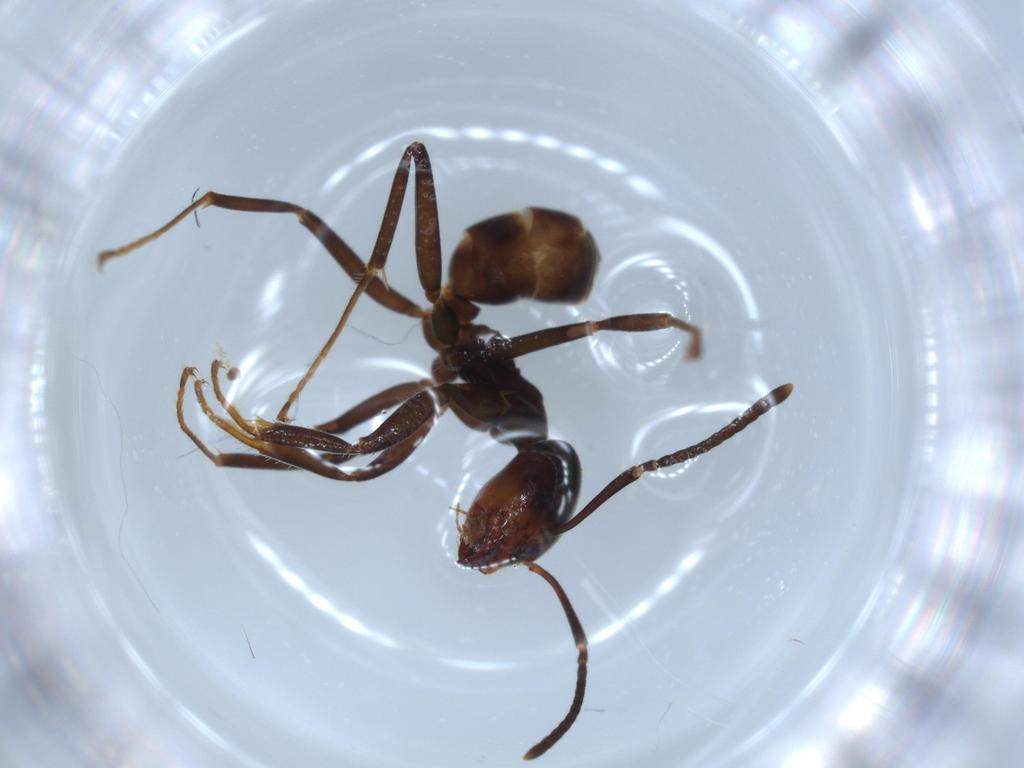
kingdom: Animalia
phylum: Arthropoda
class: Insecta
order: Hymenoptera
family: Formicidae
